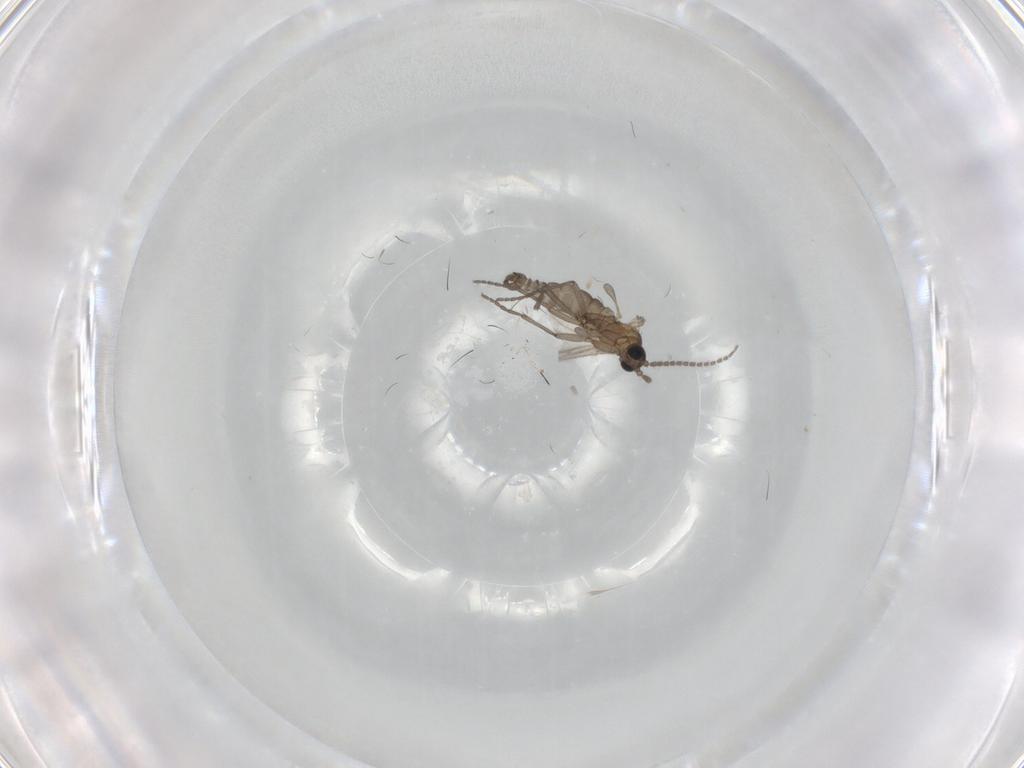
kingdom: Animalia
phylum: Arthropoda
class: Insecta
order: Diptera
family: Sciaridae
